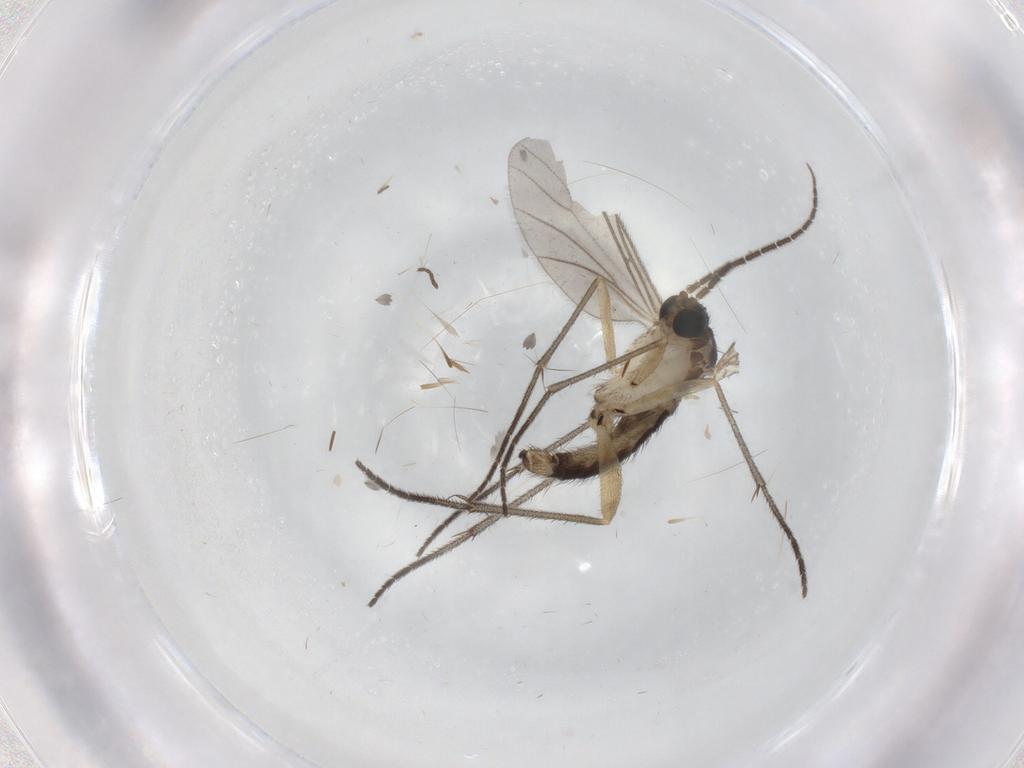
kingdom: Animalia
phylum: Arthropoda
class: Insecta
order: Diptera
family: Sciaridae
